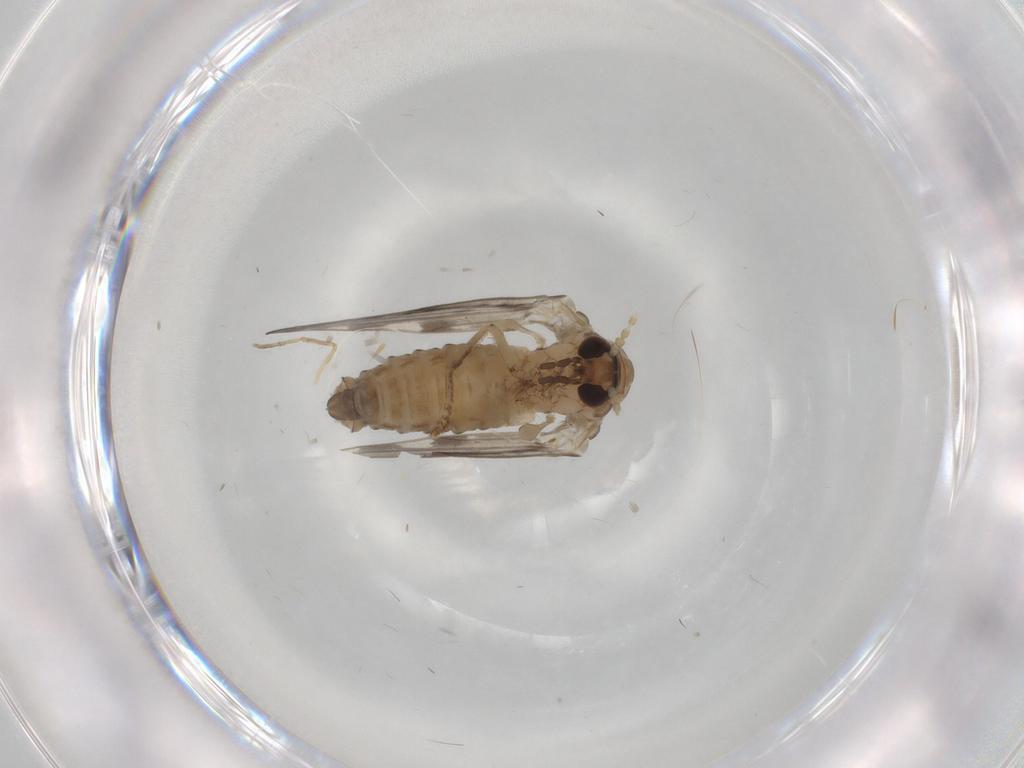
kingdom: Animalia
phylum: Arthropoda
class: Insecta
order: Diptera
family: Psychodidae
